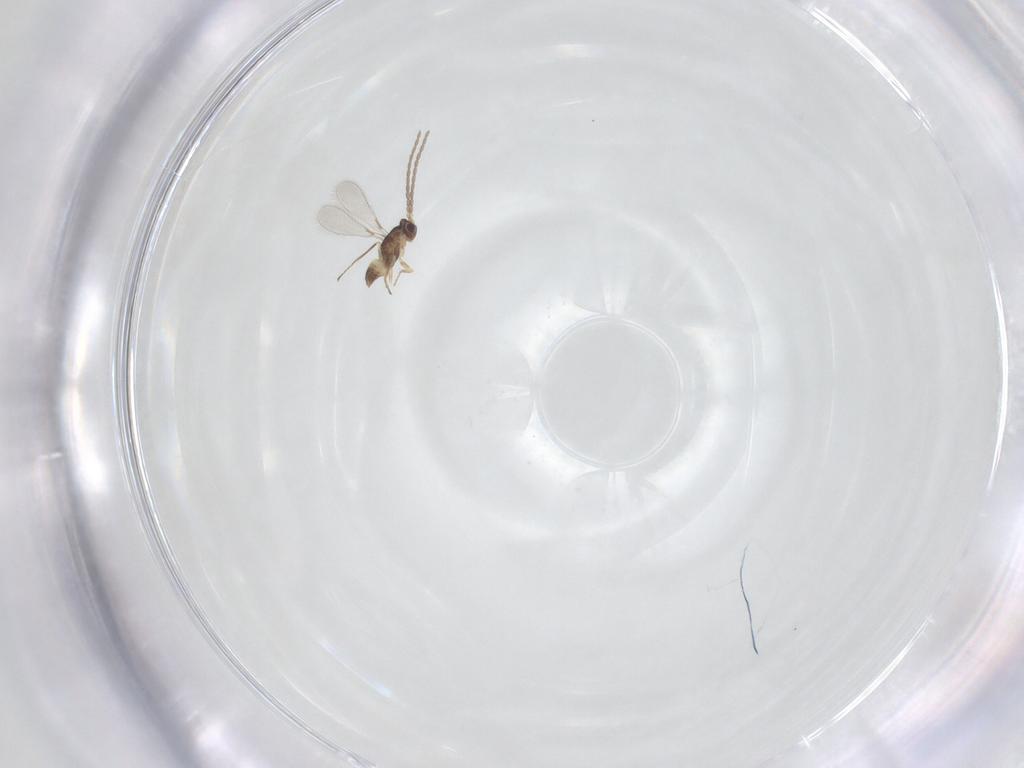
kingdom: Animalia
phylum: Arthropoda
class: Insecta
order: Hymenoptera
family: Mymaridae
